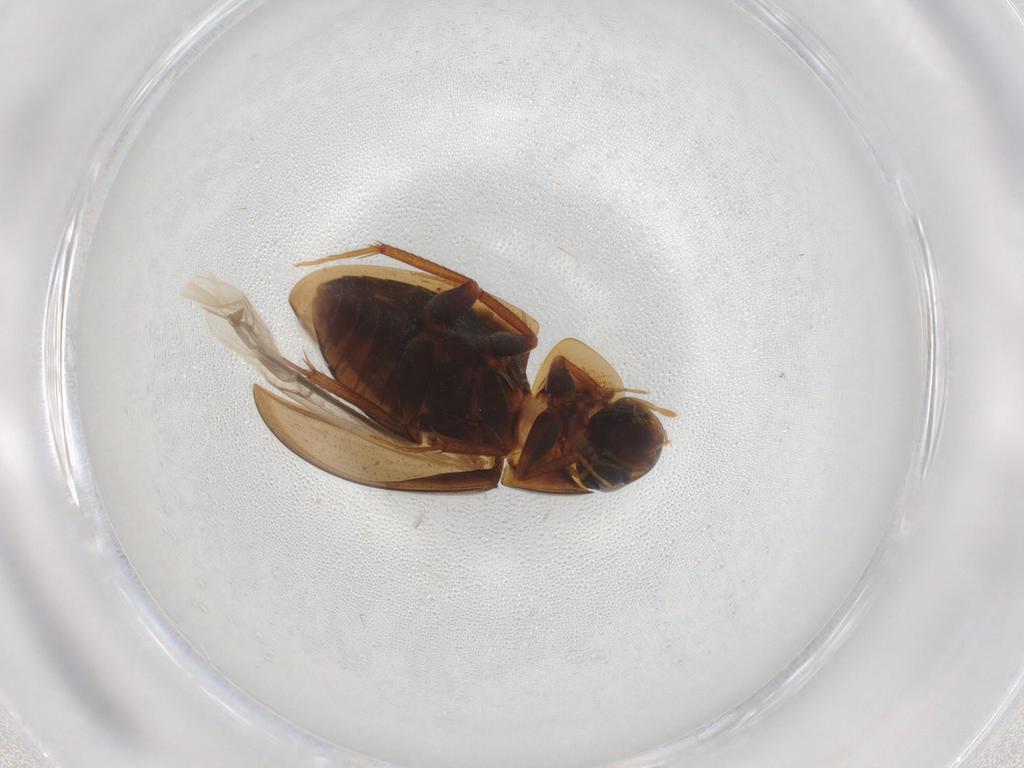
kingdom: Animalia
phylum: Arthropoda
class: Insecta
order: Coleoptera
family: Hydrophilidae
